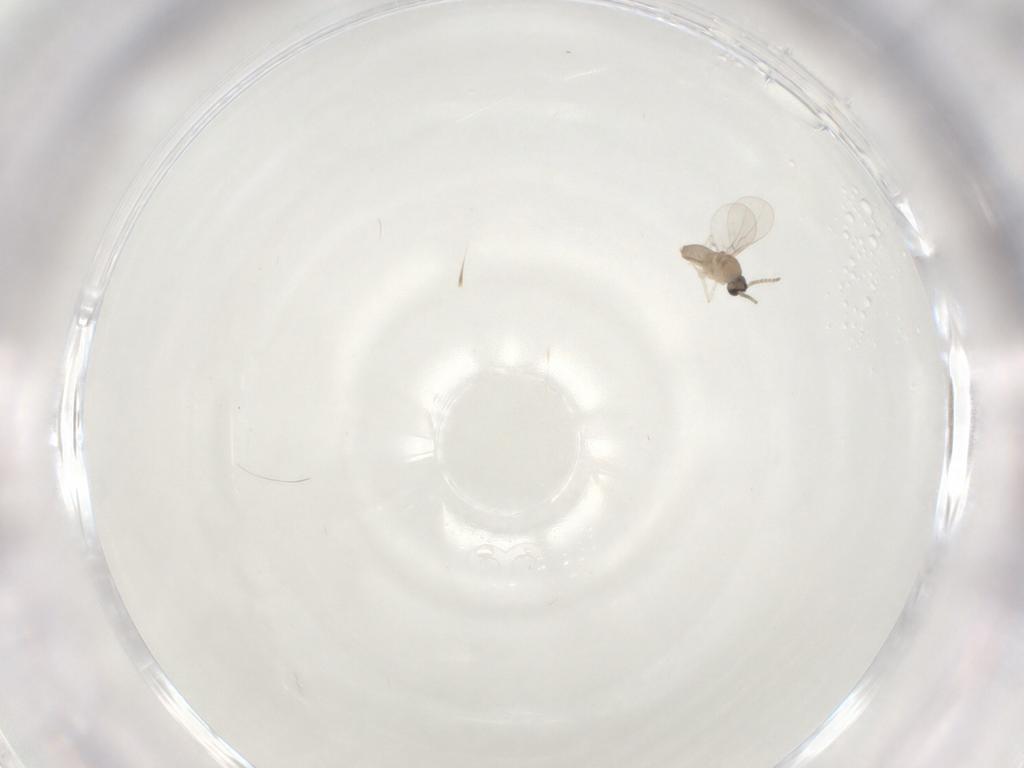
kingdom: Animalia
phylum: Arthropoda
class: Insecta
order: Diptera
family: Cecidomyiidae
